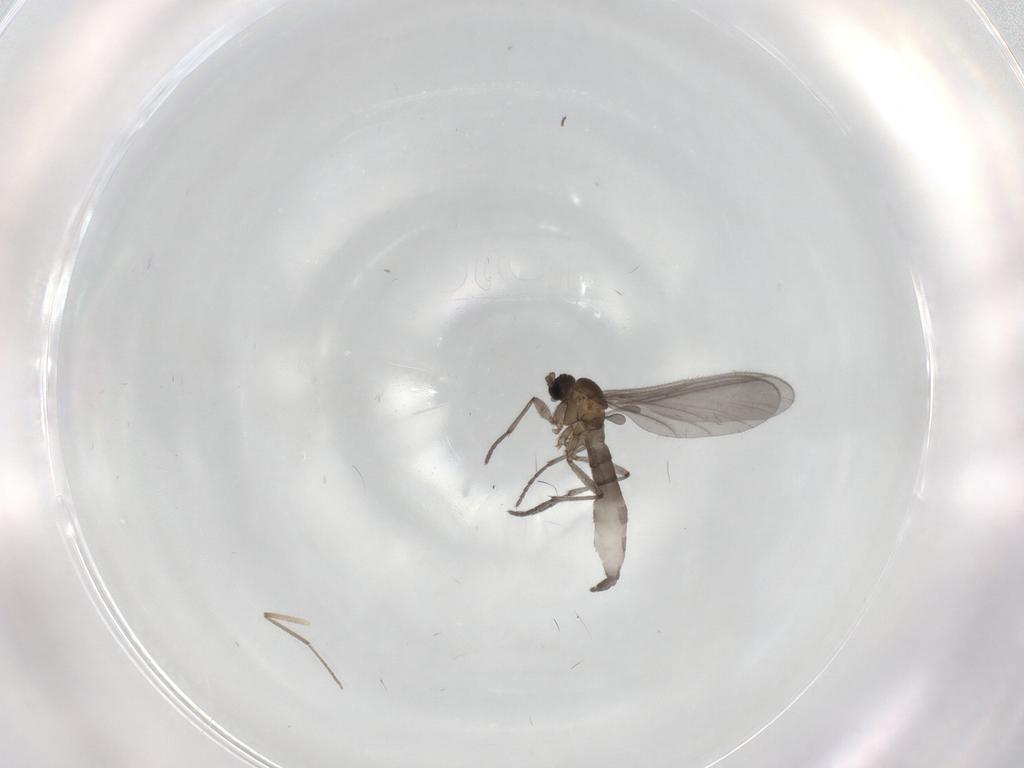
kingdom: Animalia
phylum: Arthropoda
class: Insecta
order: Diptera
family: Sciaridae
